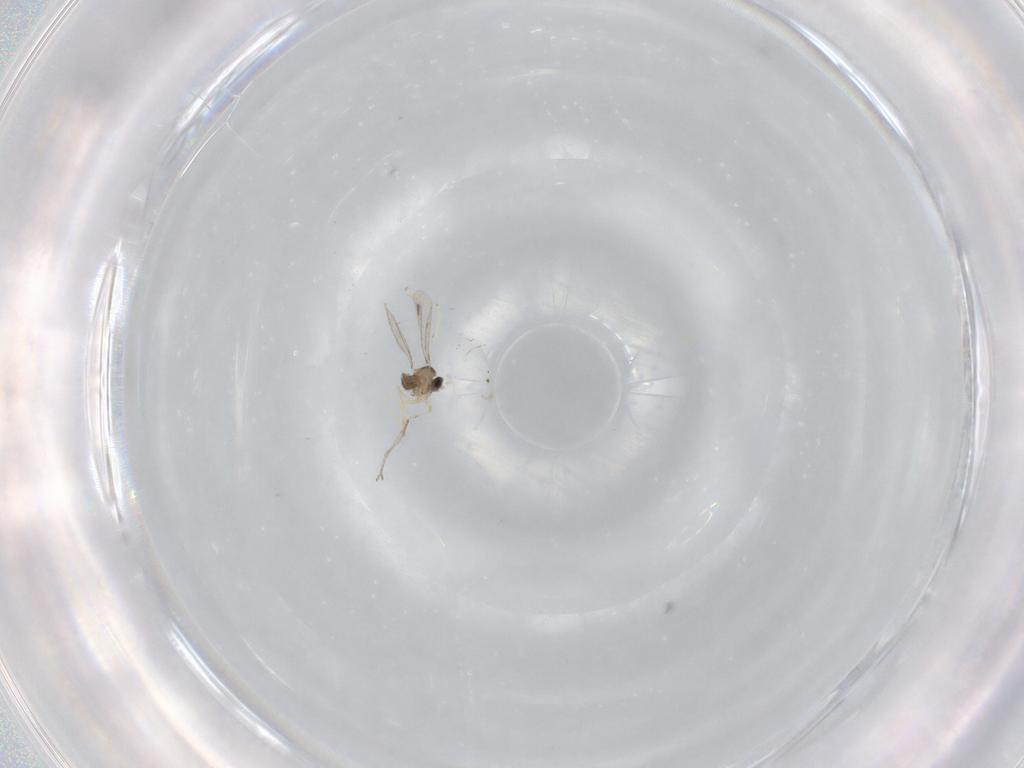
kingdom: Animalia
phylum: Arthropoda
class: Insecta
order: Diptera
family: Cecidomyiidae
